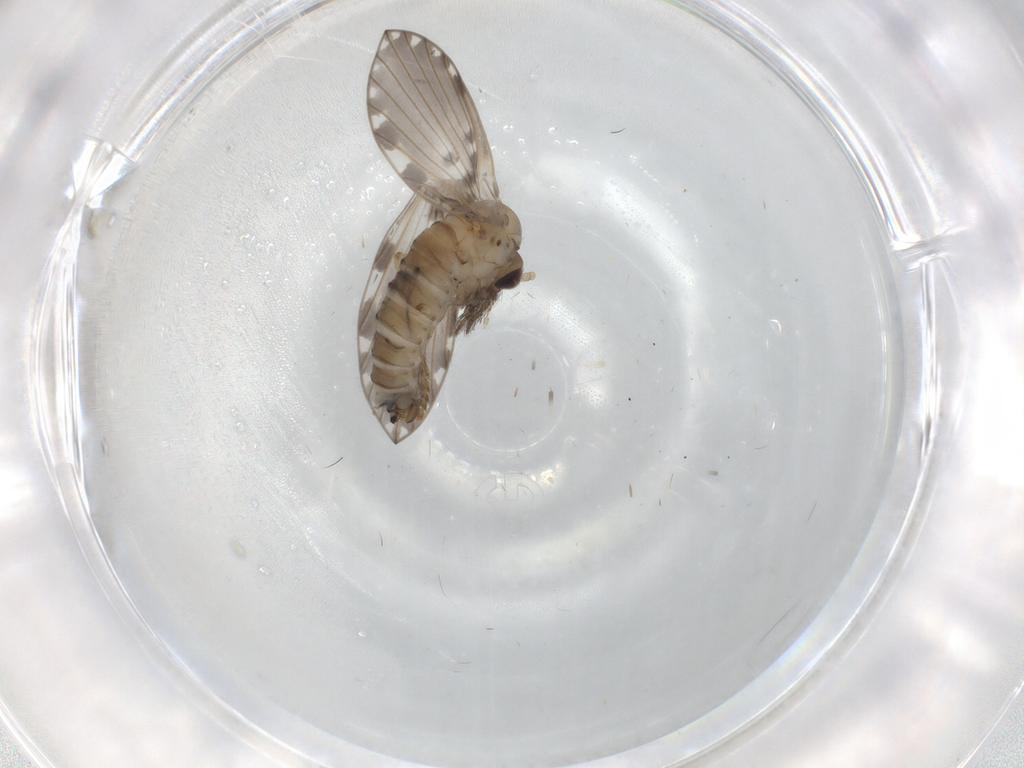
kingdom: Animalia
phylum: Arthropoda
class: Insecta
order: Diptera
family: Psychodidae
